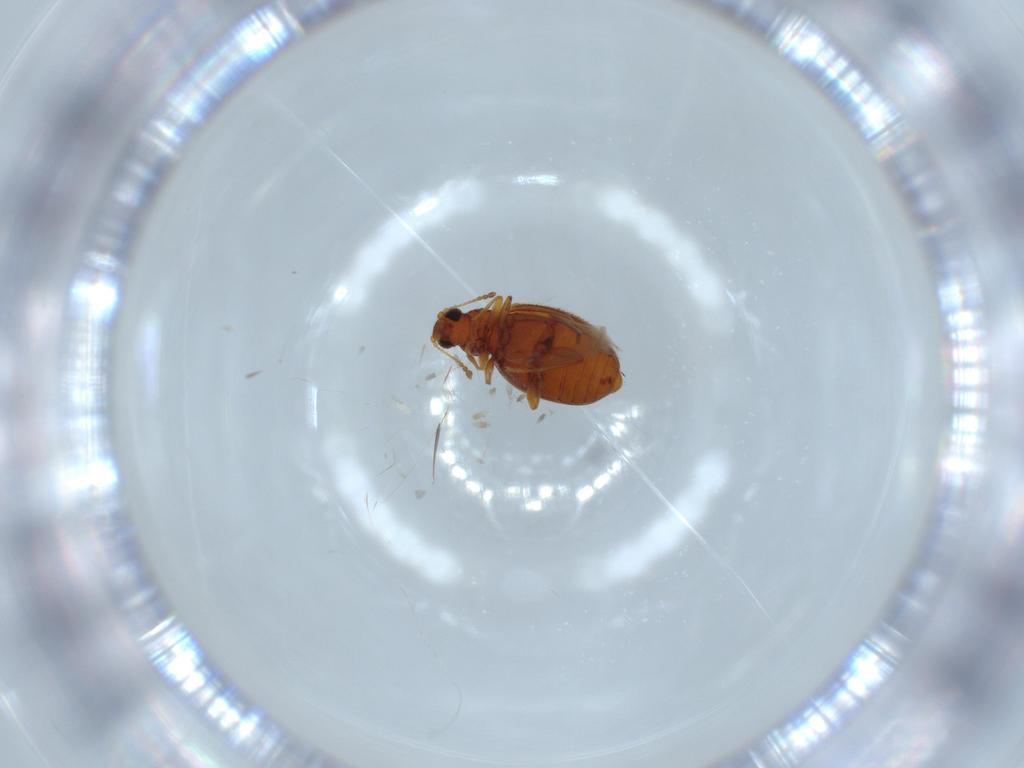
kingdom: Animalia
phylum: Arthropoda
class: Insecta
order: Coleoptera
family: Latridiidae
